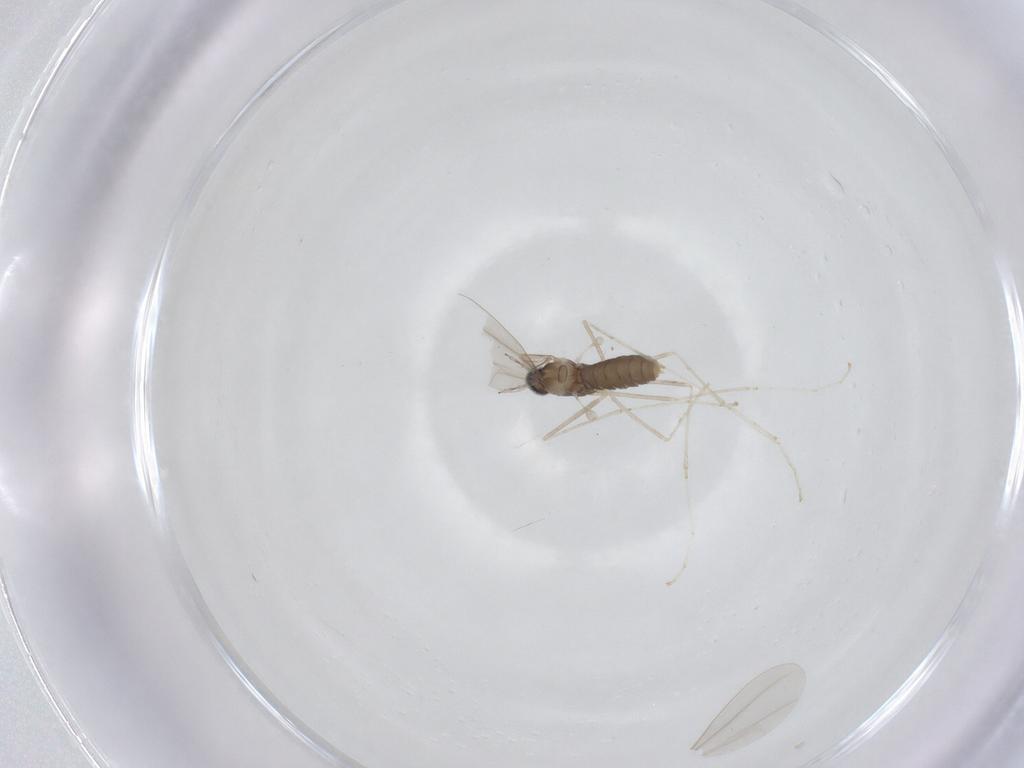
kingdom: Animalia
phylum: Arthropoda
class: Insecta
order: Diptera
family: Cecidomyiidae
